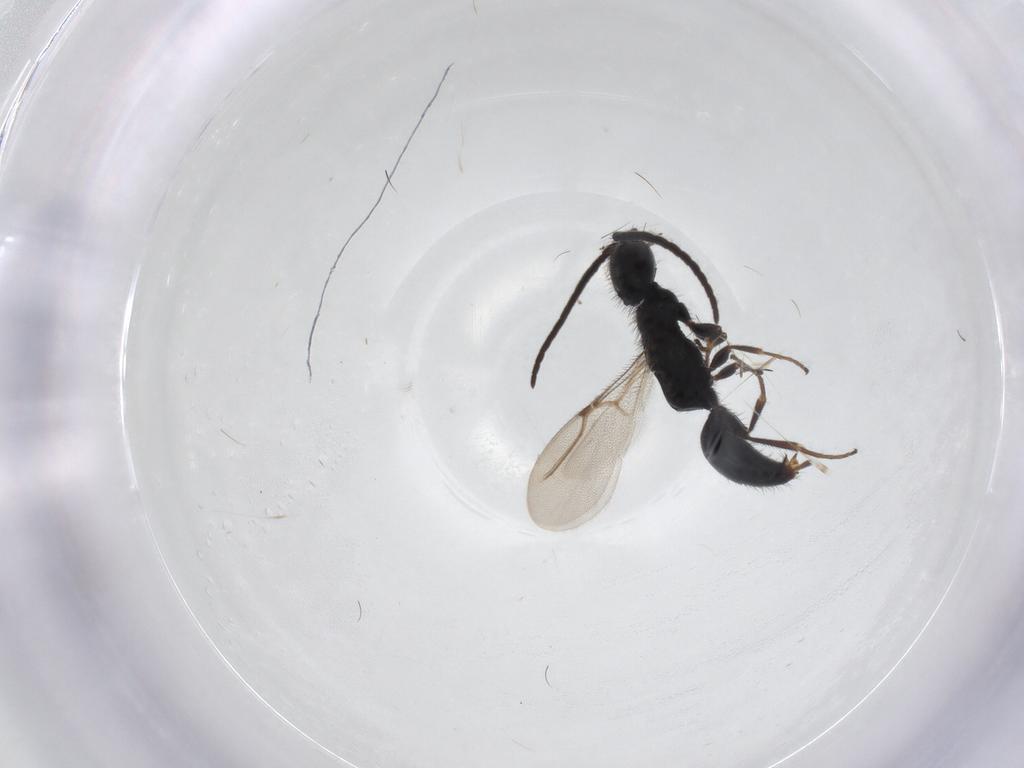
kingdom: Animalia
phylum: Arthropoda
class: Insecta
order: Hymenoptera
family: Bethylidae
